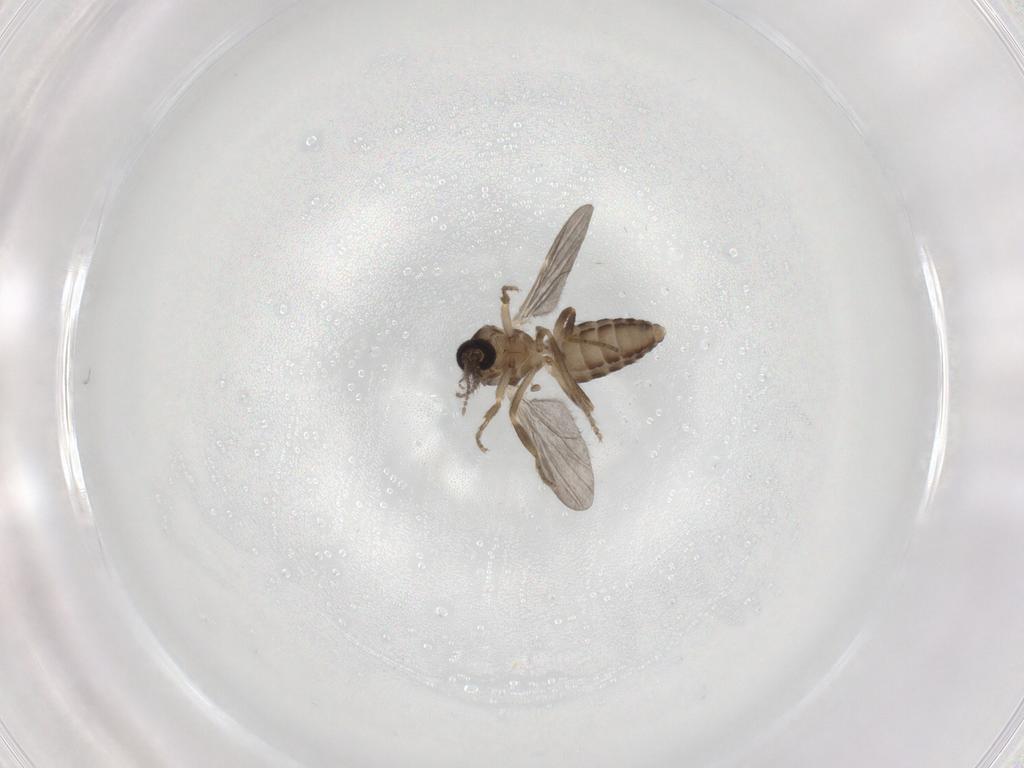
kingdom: Animalia
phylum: Arthropoda
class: Insecta
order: Diptera
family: Ceratopogonidae
